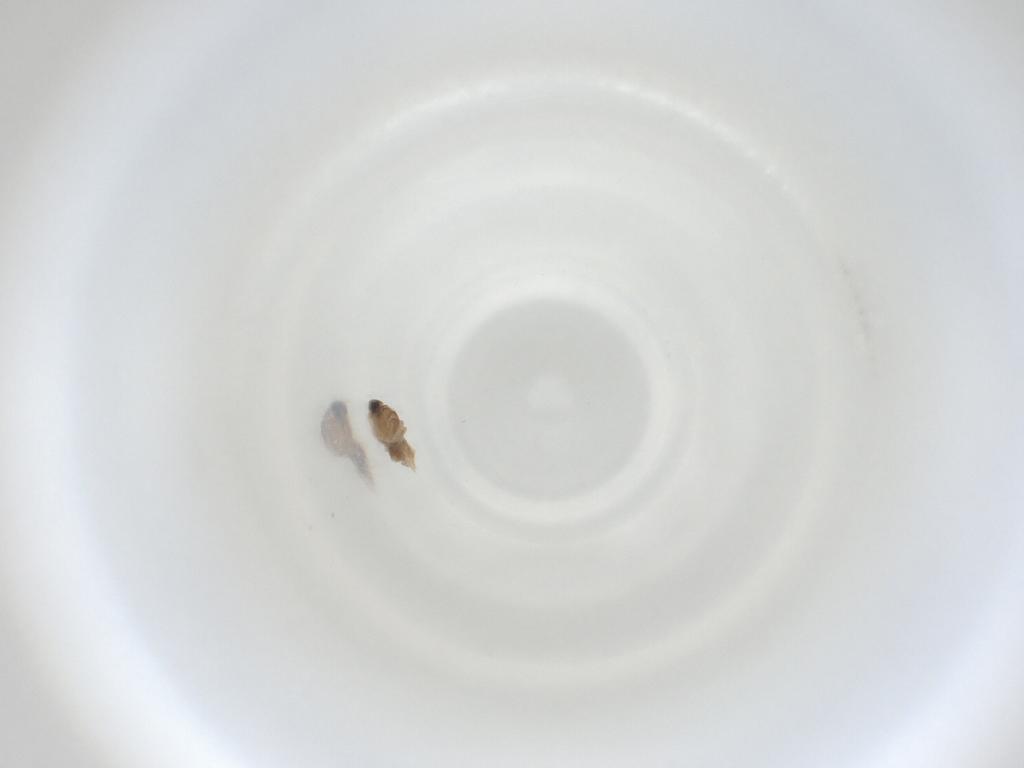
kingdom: Animalia
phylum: Arthropoda
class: Insecta
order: Diptera
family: Cecidomyiidae
